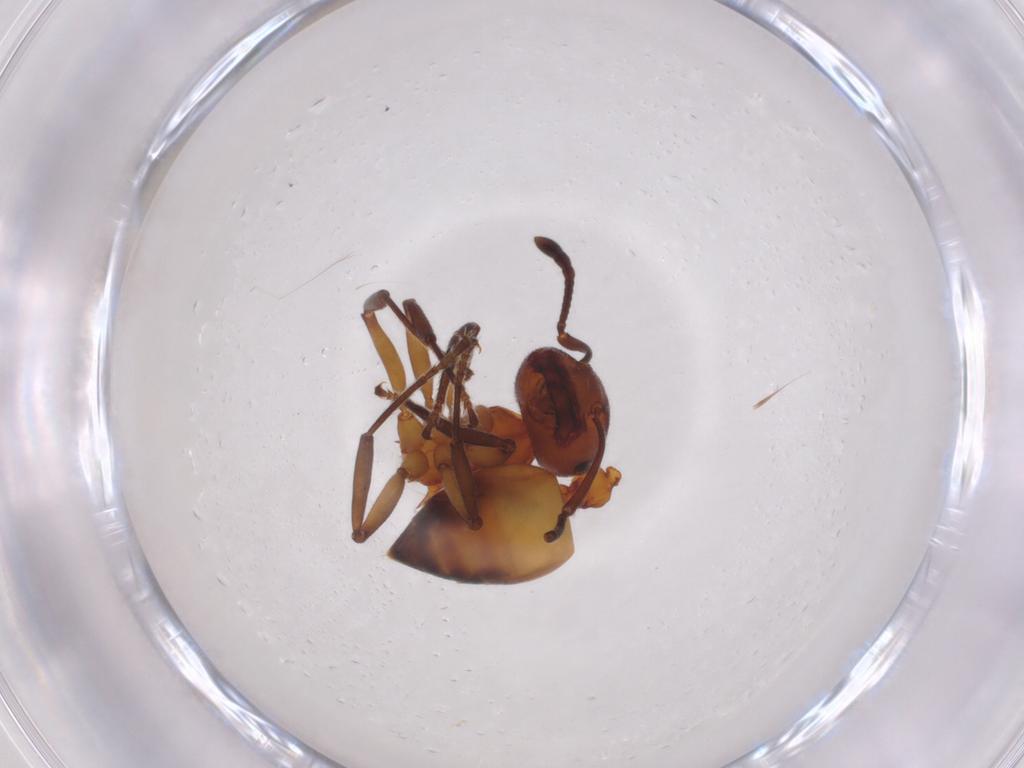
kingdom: Animalia
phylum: Arthropoda
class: Insecta
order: Hymenoptera
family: Formicidae
